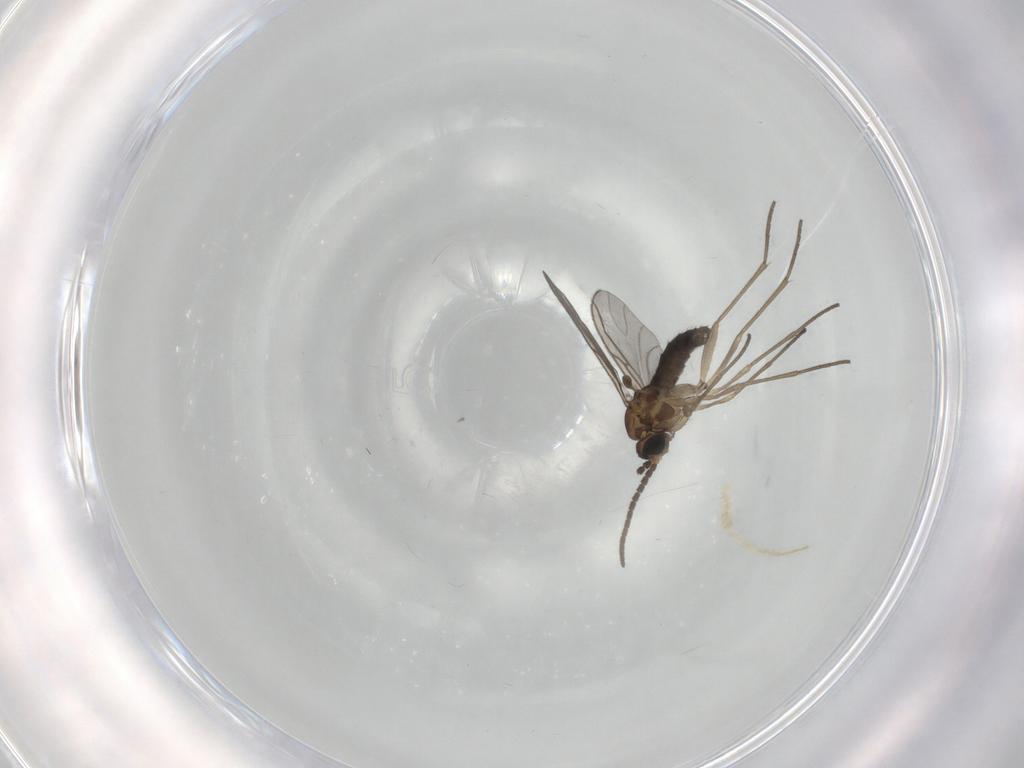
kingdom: Animalia
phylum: Arthropoda
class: Insecta
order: Diptera
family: Sciaridae
